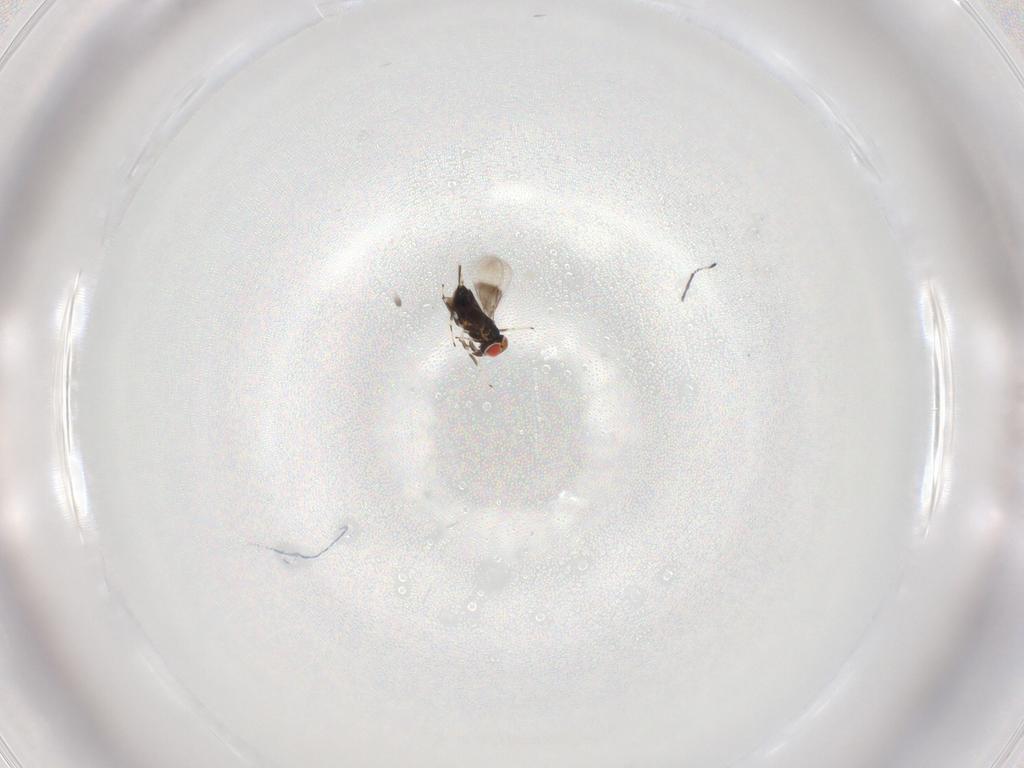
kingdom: Animalia
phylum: Arthropoda
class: Insecta
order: Hymenoptera
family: Azotidae
